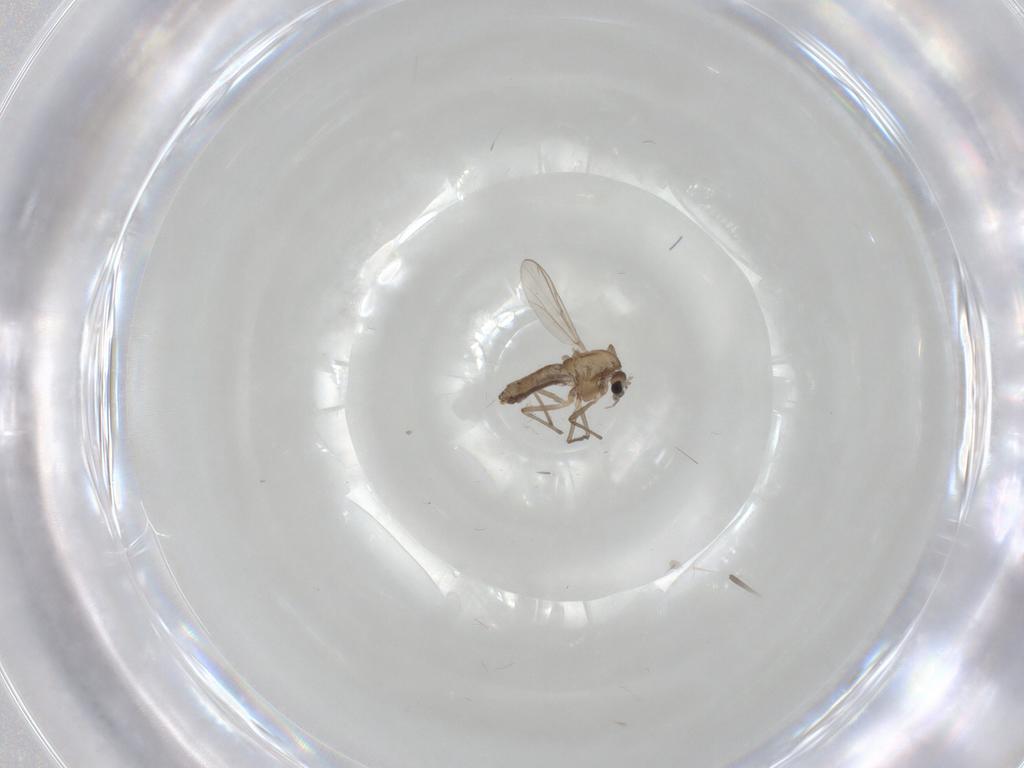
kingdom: Animalia
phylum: Arthropoda
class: Insecta
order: Diptera
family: Chironomidae
